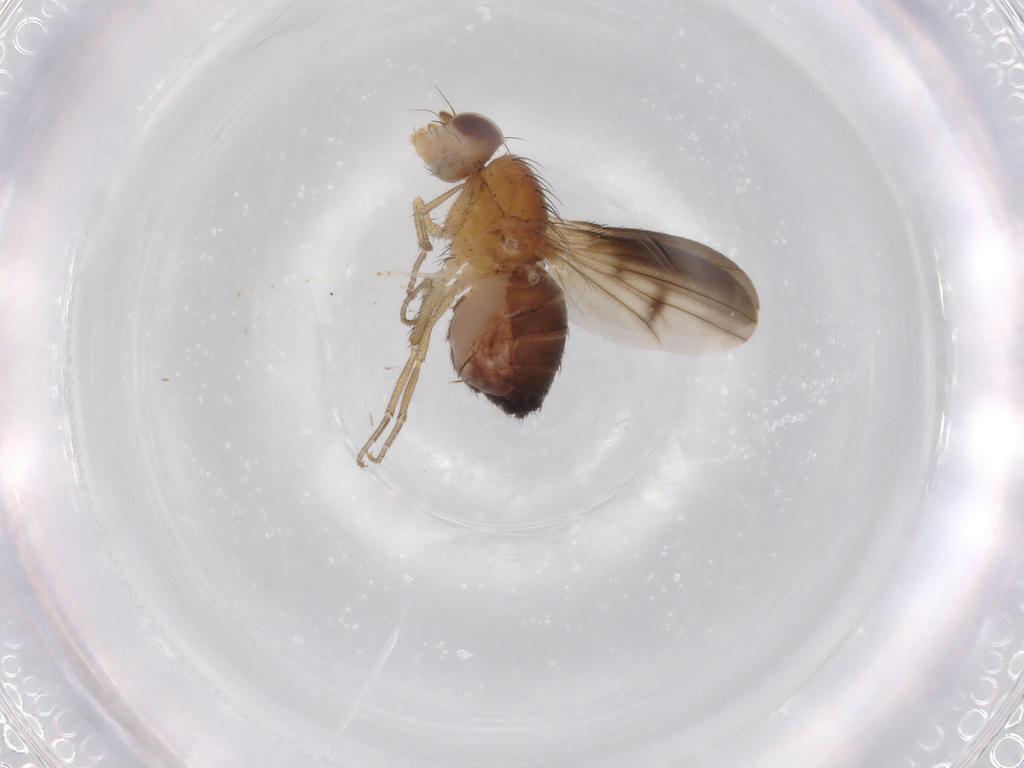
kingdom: Animalia
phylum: Arthropoda
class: Insecta
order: Diptera
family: Heleomyzidae
